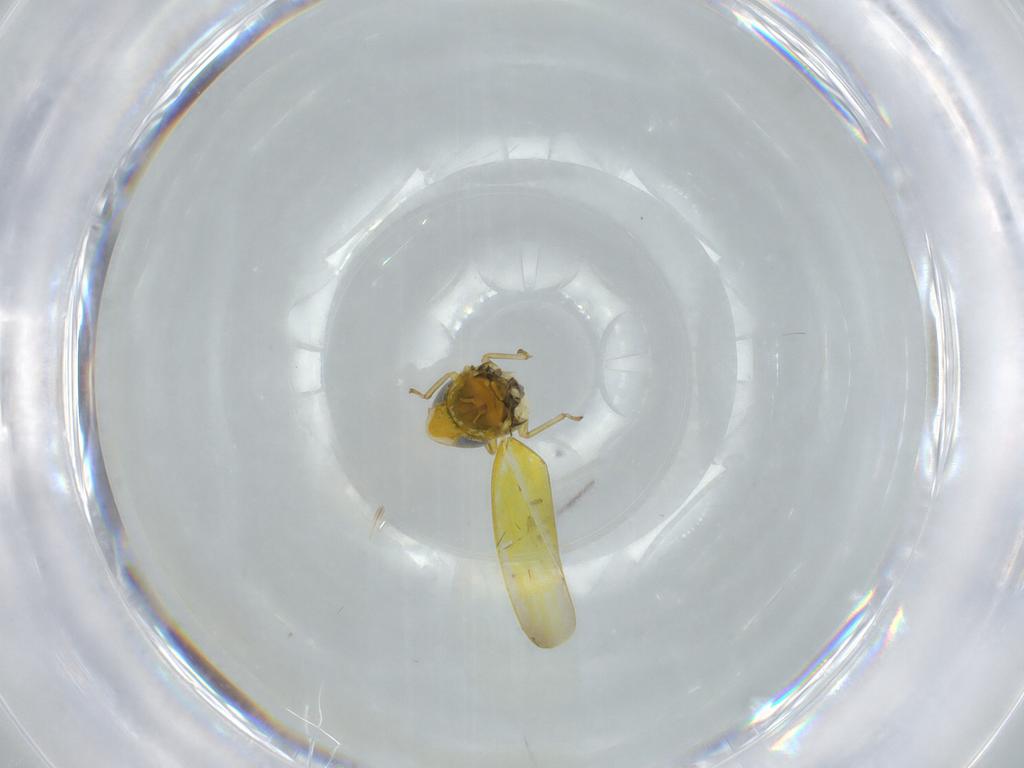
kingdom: Animalia
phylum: Arthropoda
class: Insecta
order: Hemiptera
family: Cicadellidae
